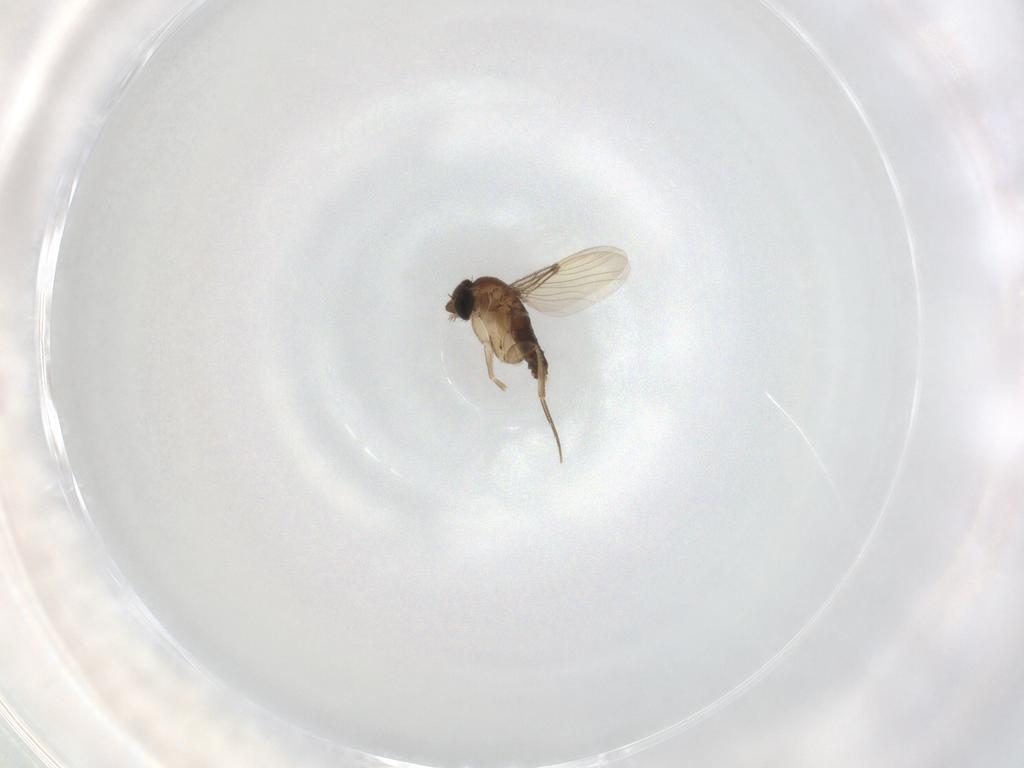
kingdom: Animalia
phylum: Arthropoda
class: Insecta
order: Diptera
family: Phoridae
